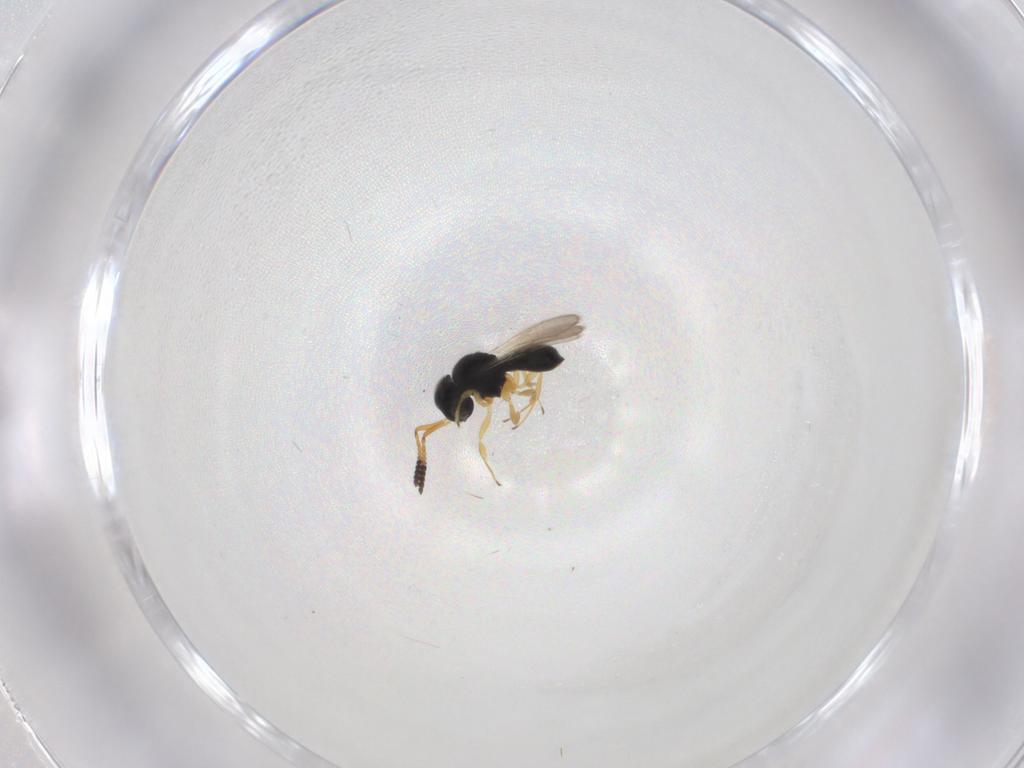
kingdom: Animalia
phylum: Arthropoda
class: Insecta
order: Hymenoptera
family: Scelionidae
